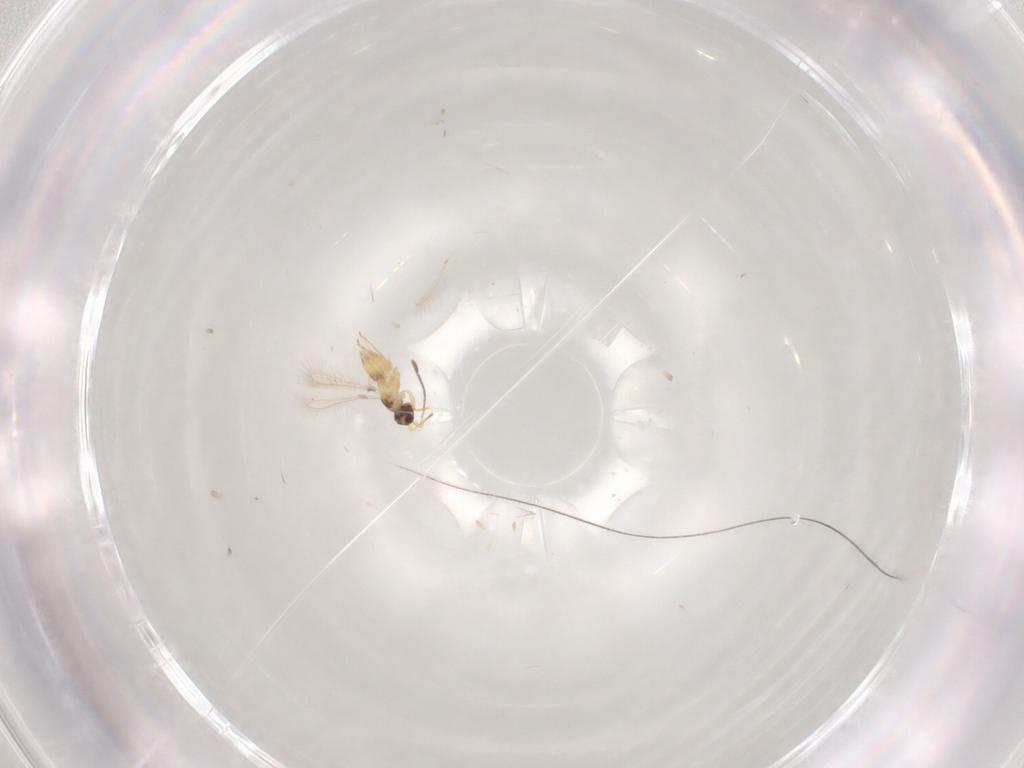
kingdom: Animalia
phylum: Arthropoda
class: Insecta
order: Hymenoptera
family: Mymaridae
